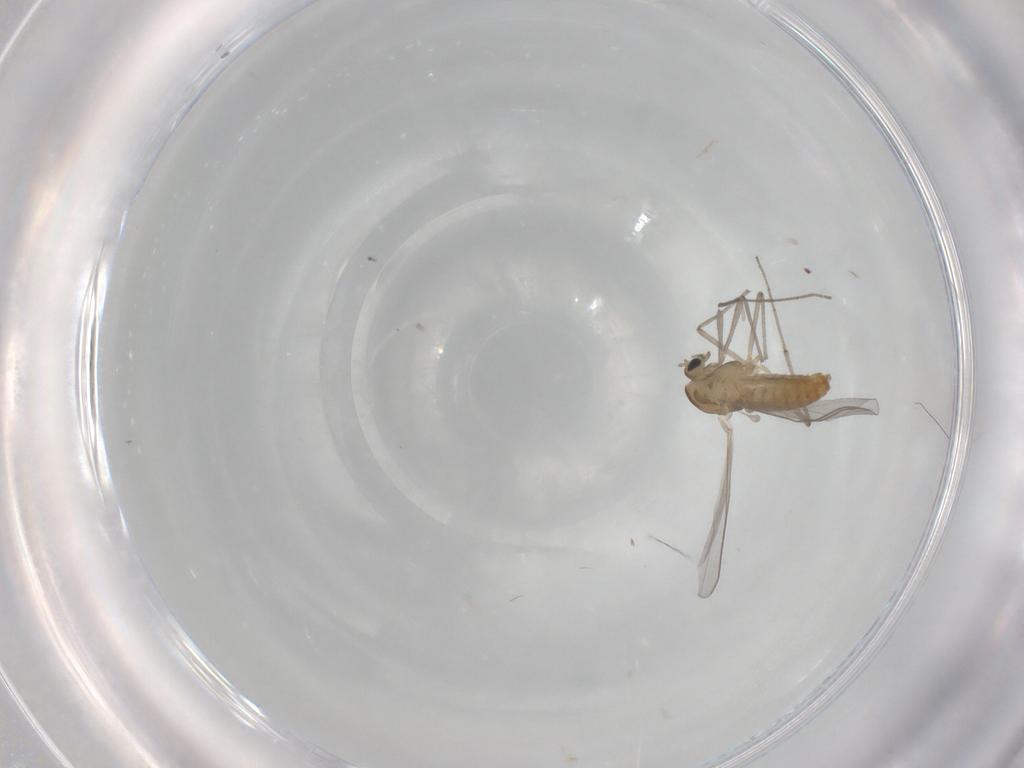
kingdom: Animalia
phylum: Arthropoda
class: Insecta
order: Diptera
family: Chironomidae
